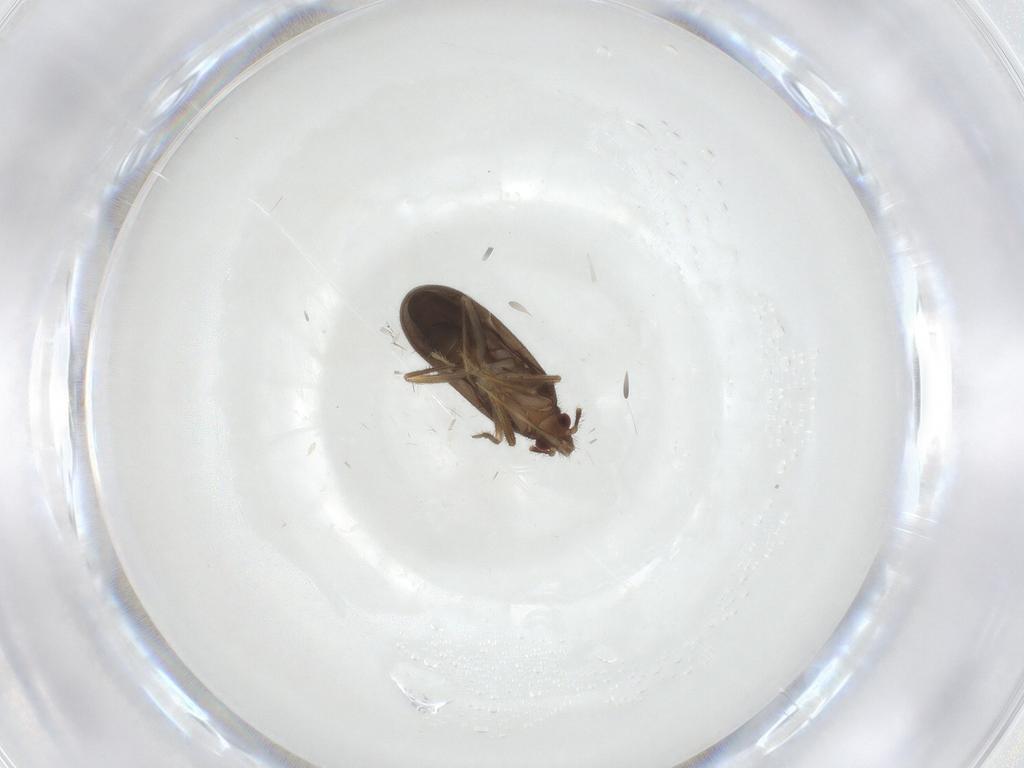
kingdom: Animalia
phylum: Arthropoda
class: Insecta
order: Hemiptera
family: Ceratocombidae
